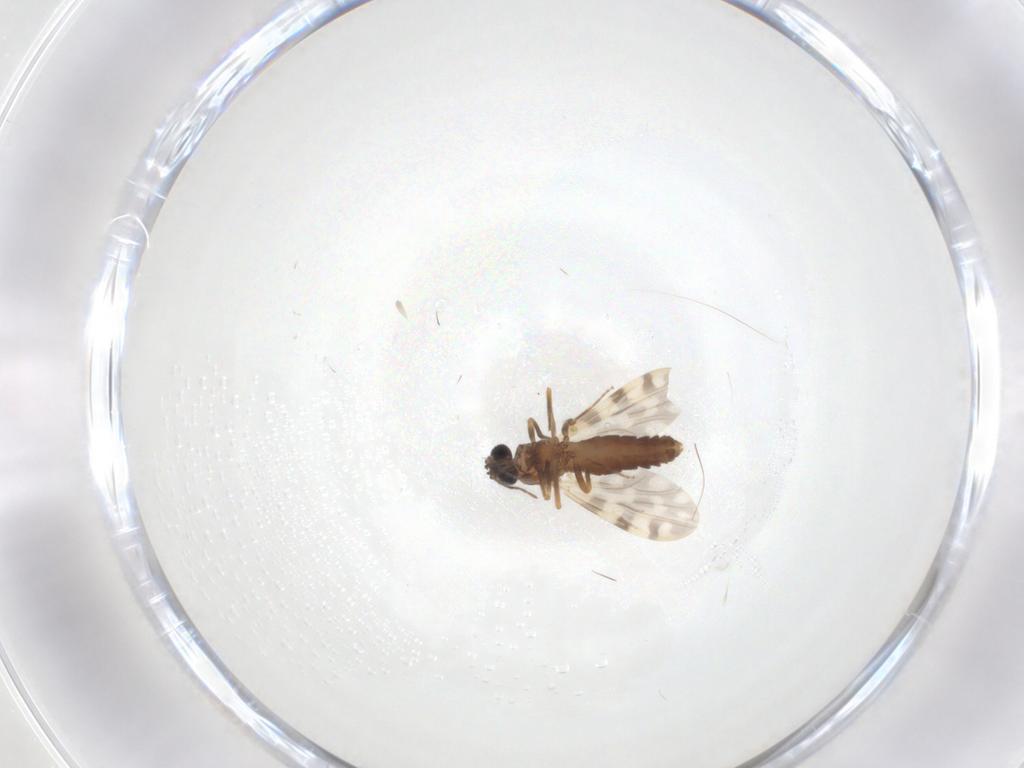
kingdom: Animalia
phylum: Arthropoda
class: Insecta
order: Diptera
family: Ceratopogonidae
